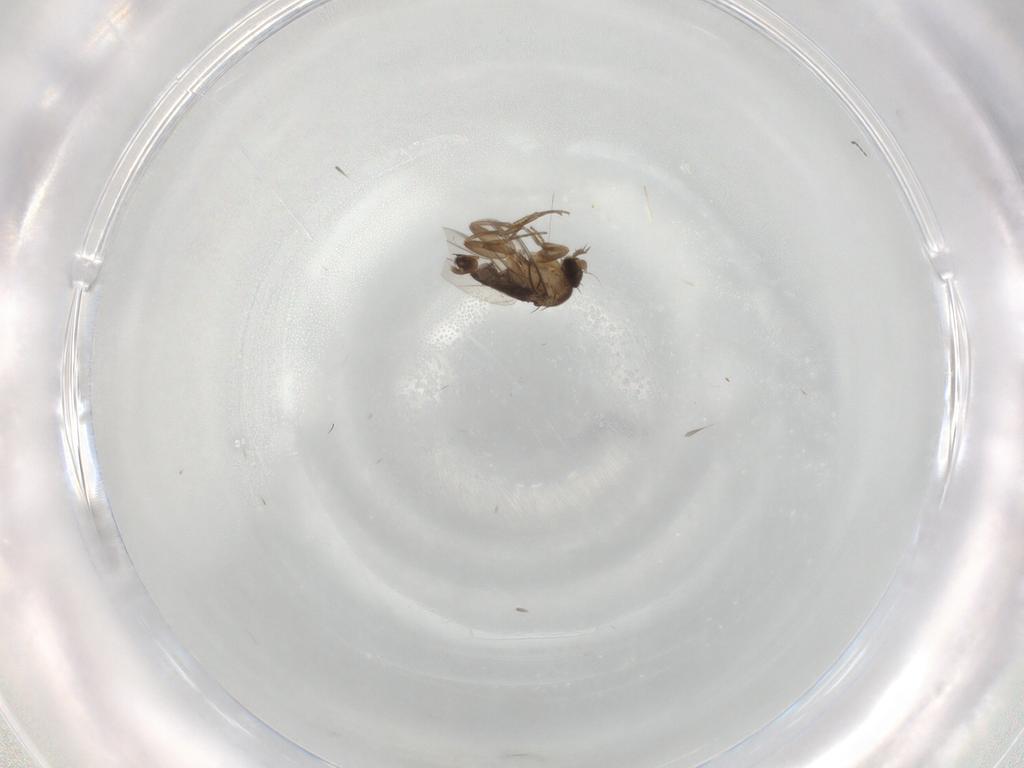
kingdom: Animalia
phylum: Arthropoda
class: Insecta
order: Diptera
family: Phoridae
